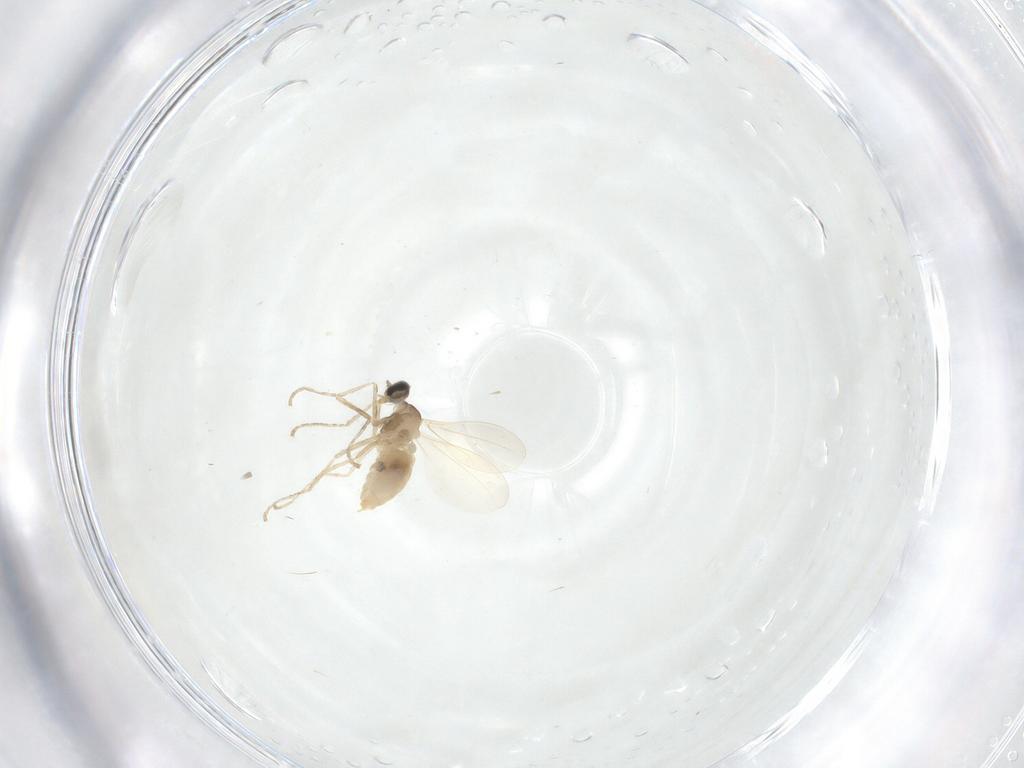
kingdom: Animalia
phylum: Arthropoda
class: Insecta
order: Diptera
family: Cecidomyiidae
